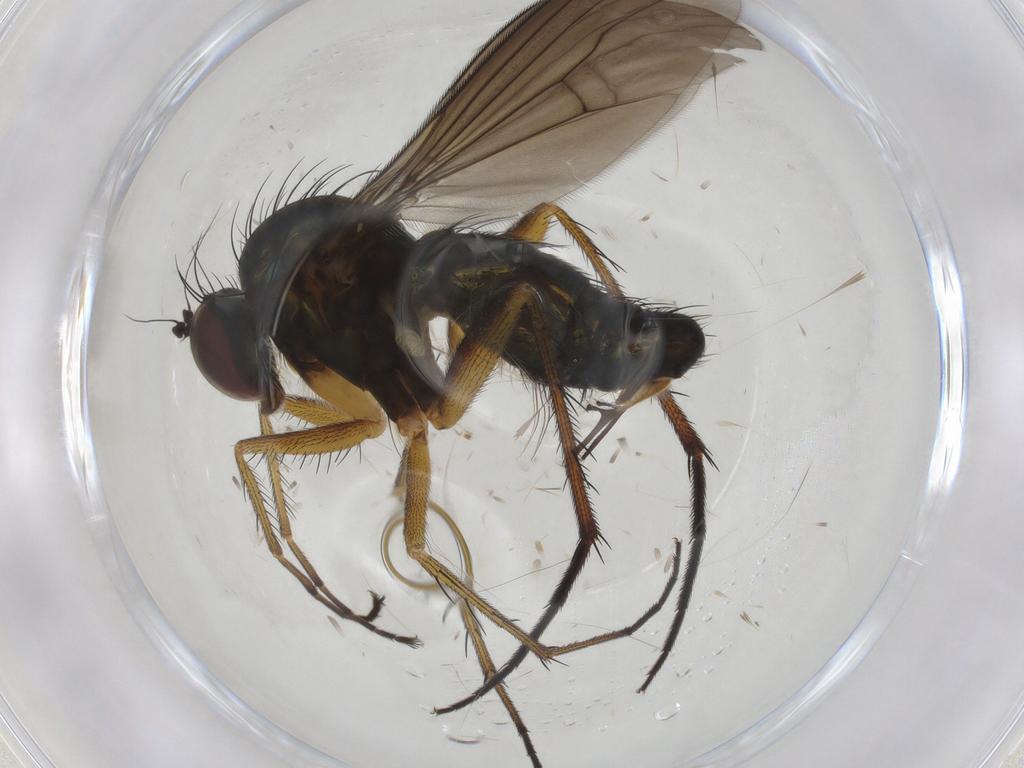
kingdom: Animalia
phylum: Arthropoda
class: Insecta
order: Diptera
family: Dolichopodidae
